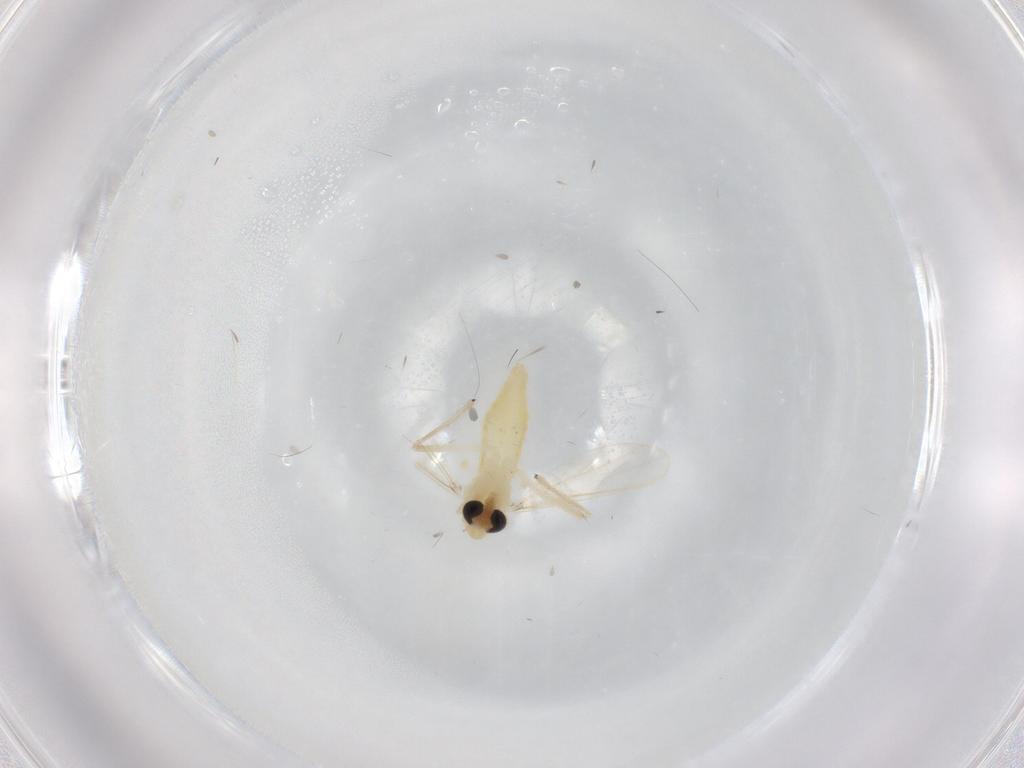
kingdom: Animalia
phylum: Arthropoda
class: Insecta
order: Diptera
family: Chironomidae
